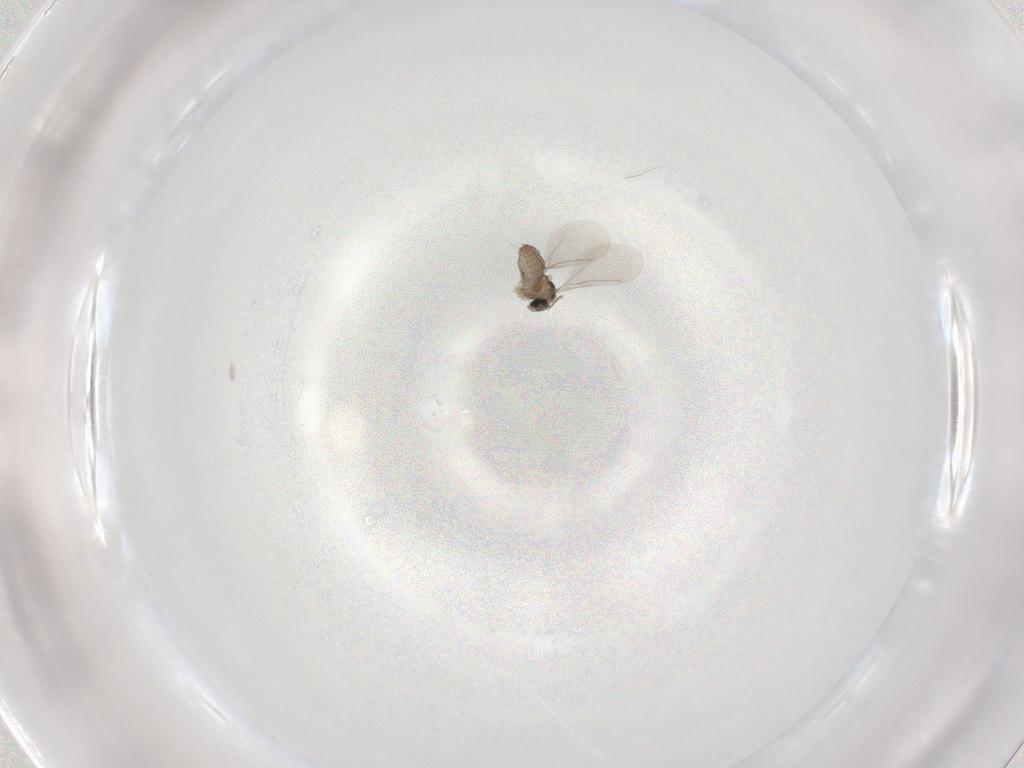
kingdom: Animalia
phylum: Arthropoda
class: Insecta
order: Diptera
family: Cecidomyiidae
